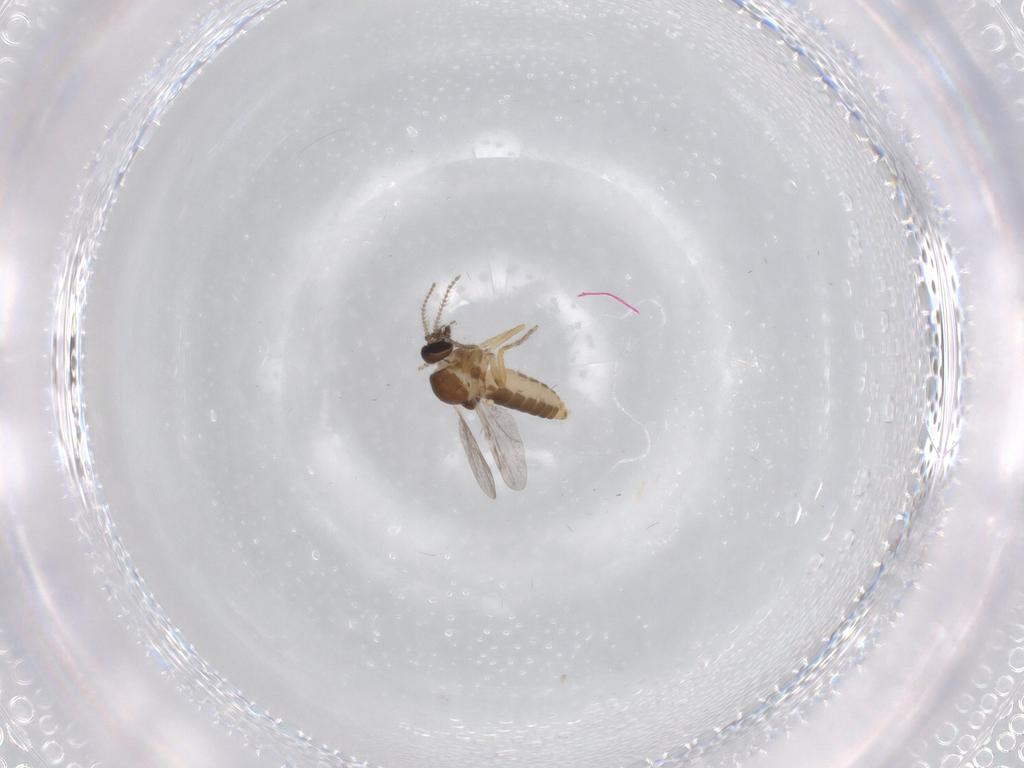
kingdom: Animalia
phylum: Arthropoda
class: Insecta
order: Diptera
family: Ceratopogonidae
